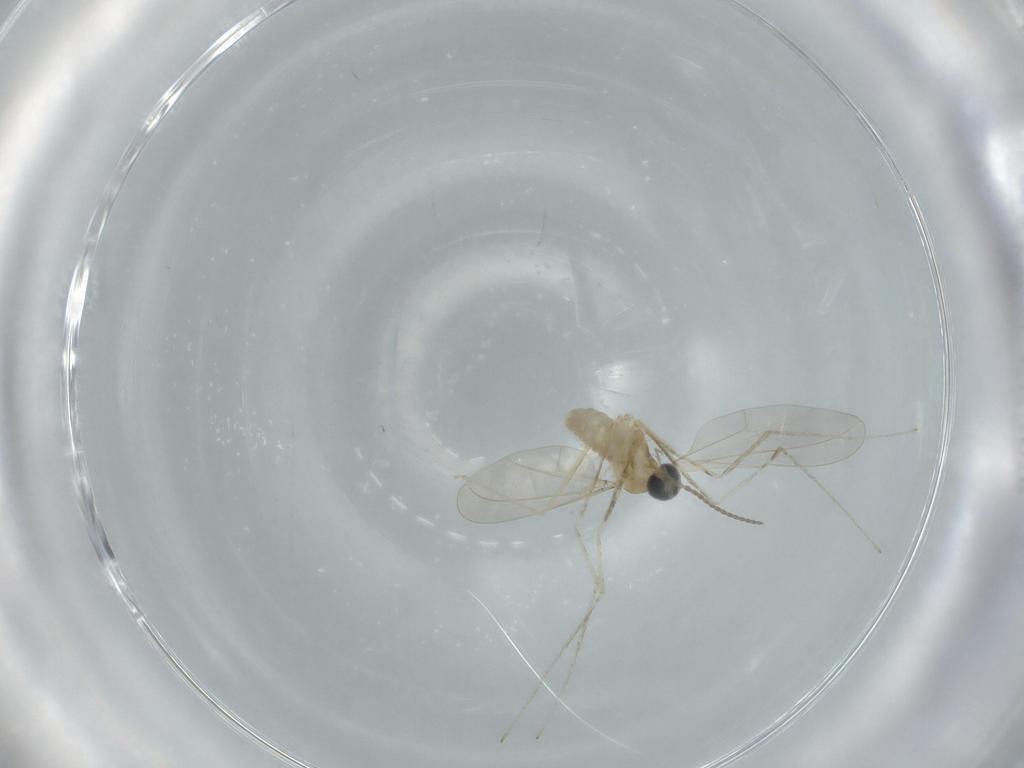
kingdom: Animalia
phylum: Arthropoda
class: Insecta
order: Diptera
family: Cecidomyiidae
